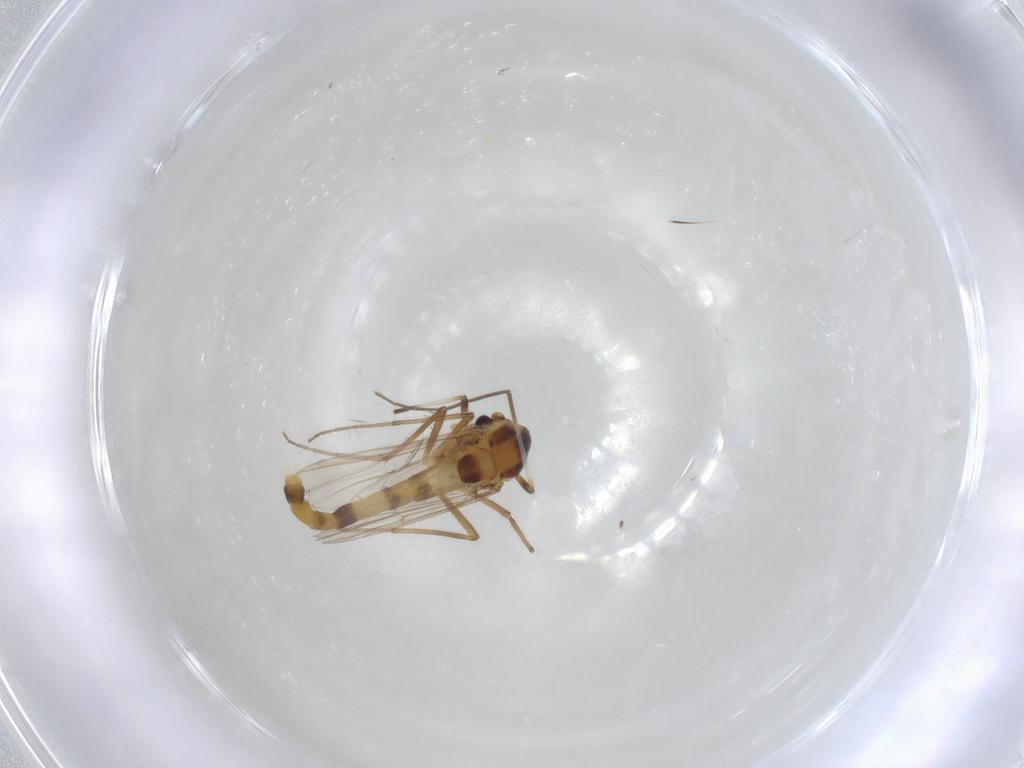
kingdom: Animalia
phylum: Arthropoda
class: Insecta
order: Diptera
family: Chironomidae
